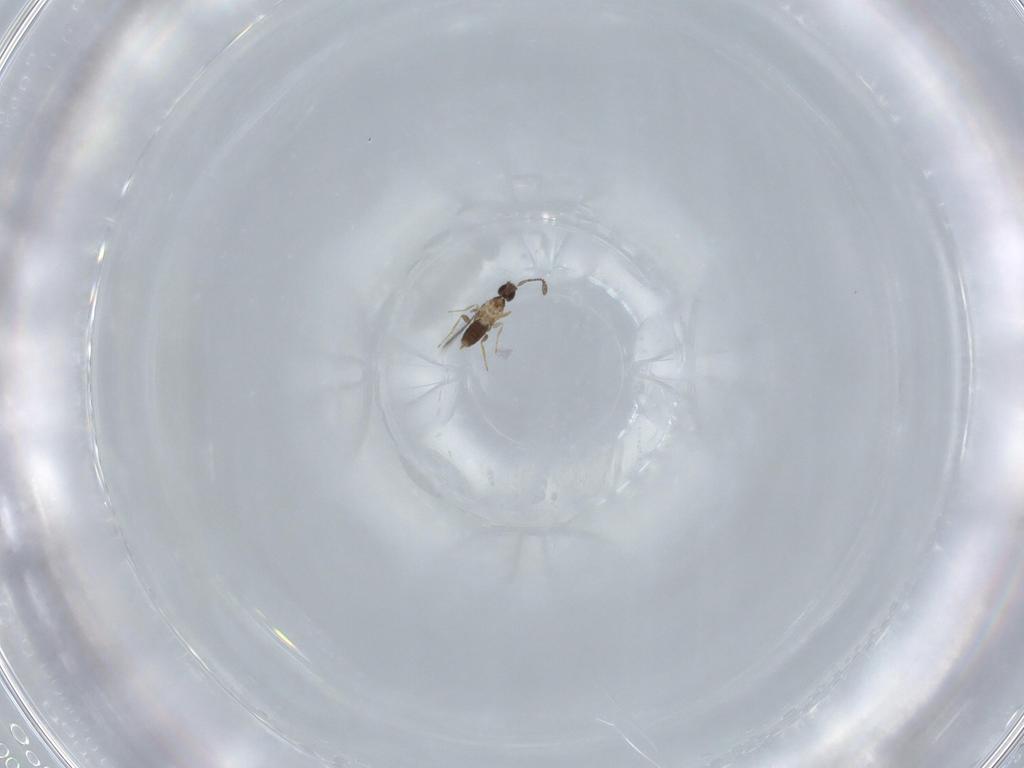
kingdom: Animalia
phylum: Arthropoda
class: Insecta
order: Hymenoptera
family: Mymaridae
